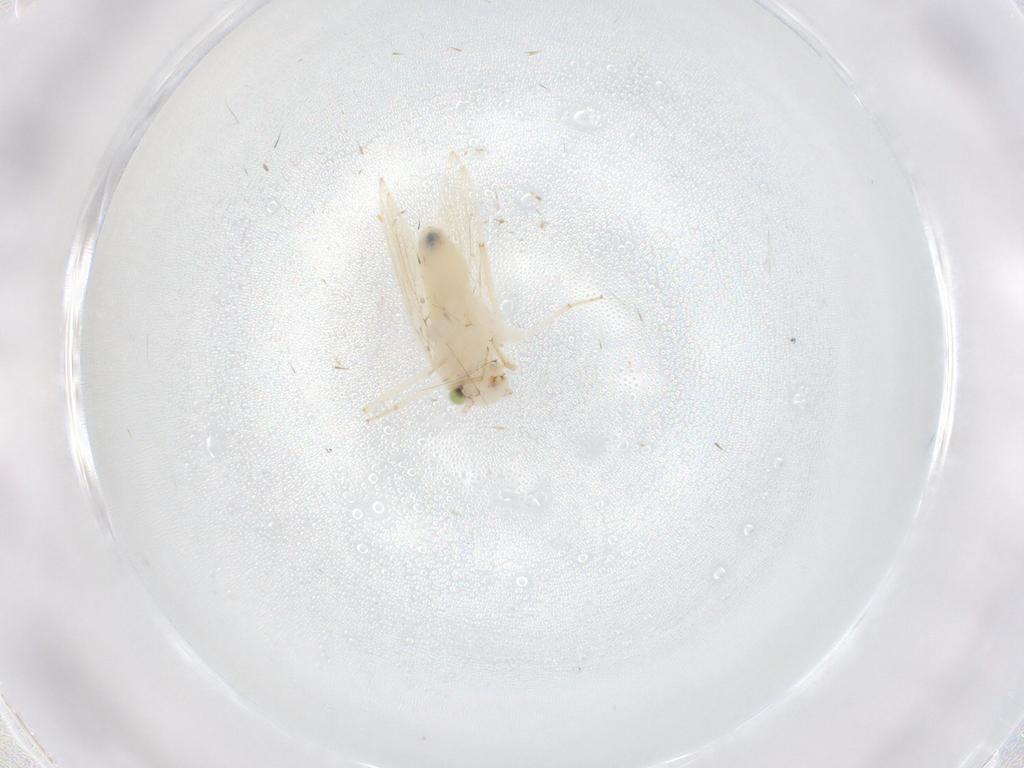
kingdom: Animalia
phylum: Arthropoda
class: Insecta
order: Psocodea
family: Lepidopsocidae
